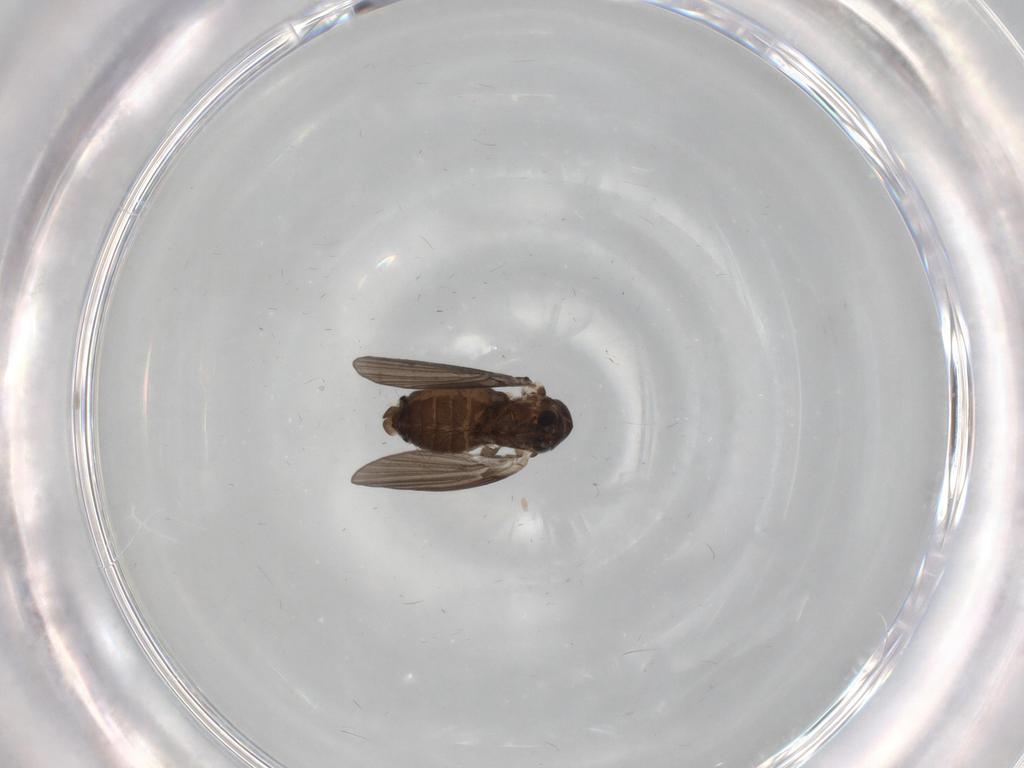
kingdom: Animalia
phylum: Arthropoda
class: Insecta
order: Diptera
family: Psychodidae
